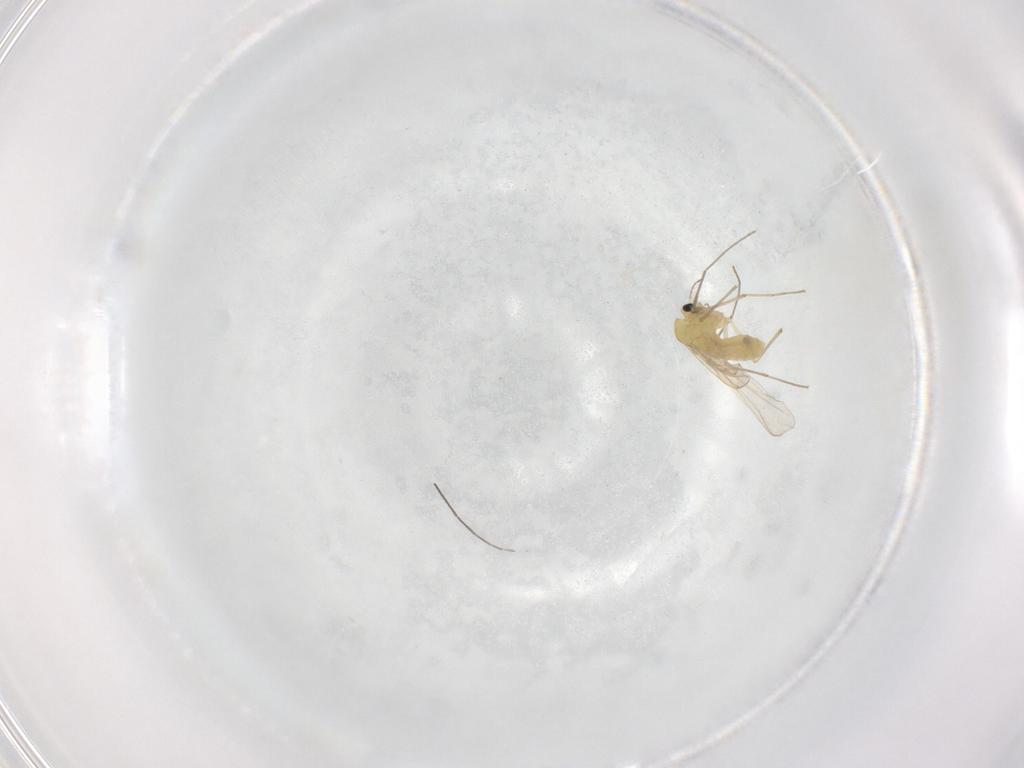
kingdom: Animalia
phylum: Arthropoda
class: Insecta
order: Diptera
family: Chironomidae
